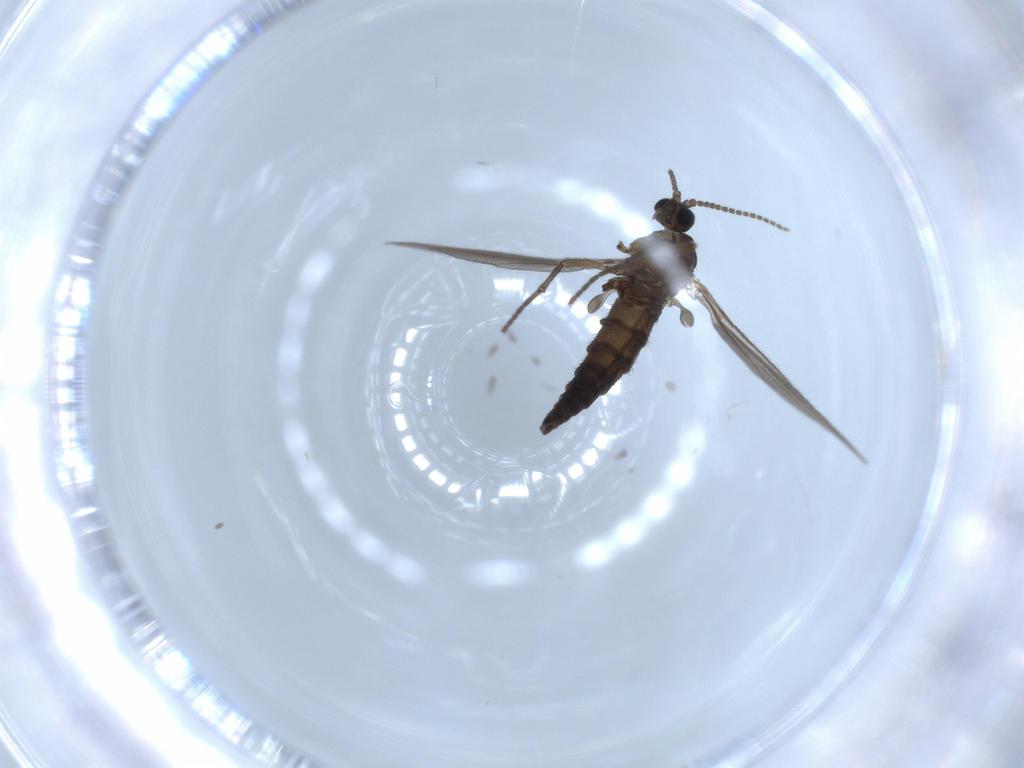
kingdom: Animalia
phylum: Arthropoda
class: Insecta
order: Diptera
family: Sciaridae
